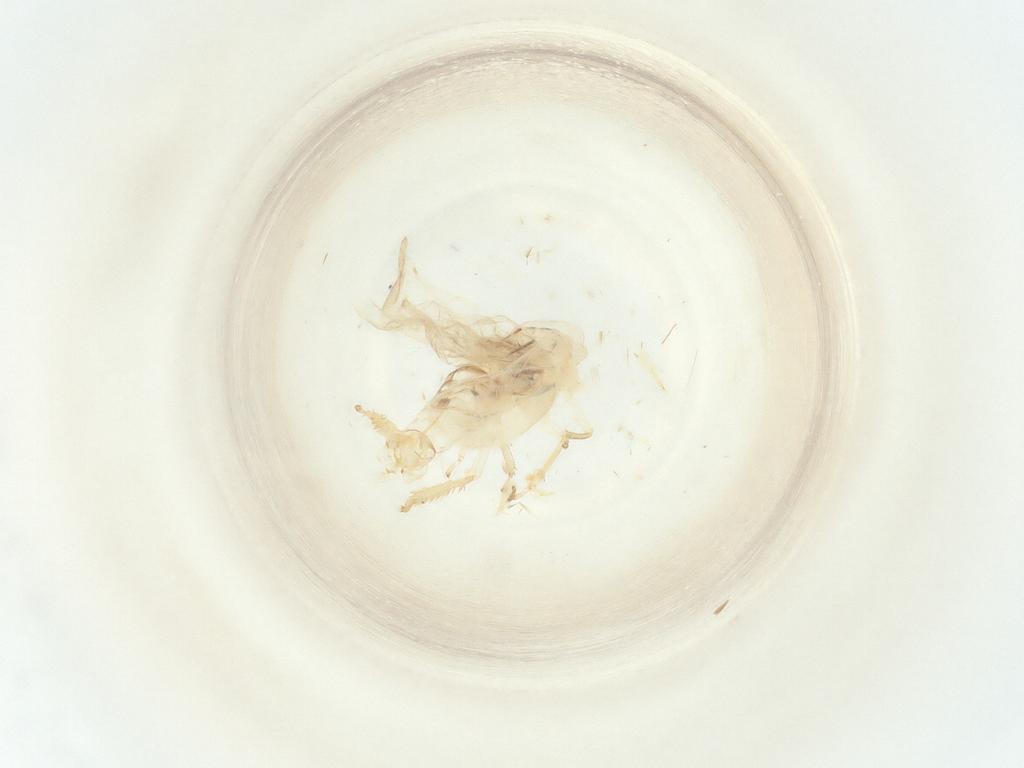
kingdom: Animalia
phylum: Arthropoda
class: Insecta
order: Hemiptera
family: Cicadellidae
